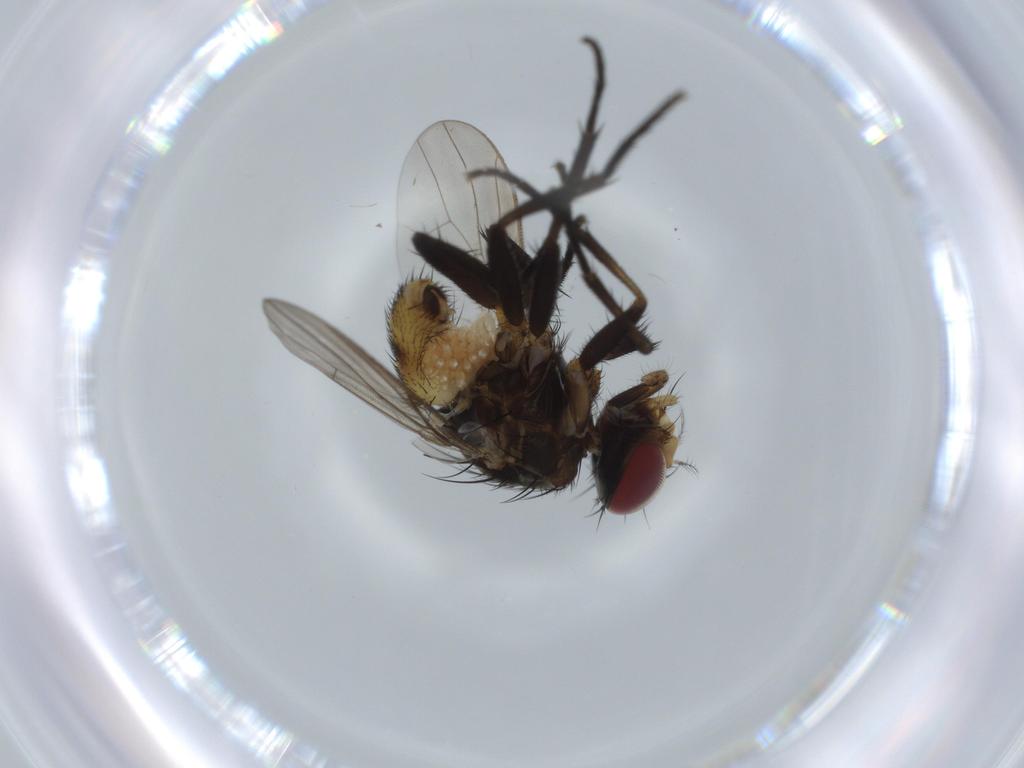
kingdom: Animalia
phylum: Arthropoda
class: Insecta
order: Diptera
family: Anthomyiidae
